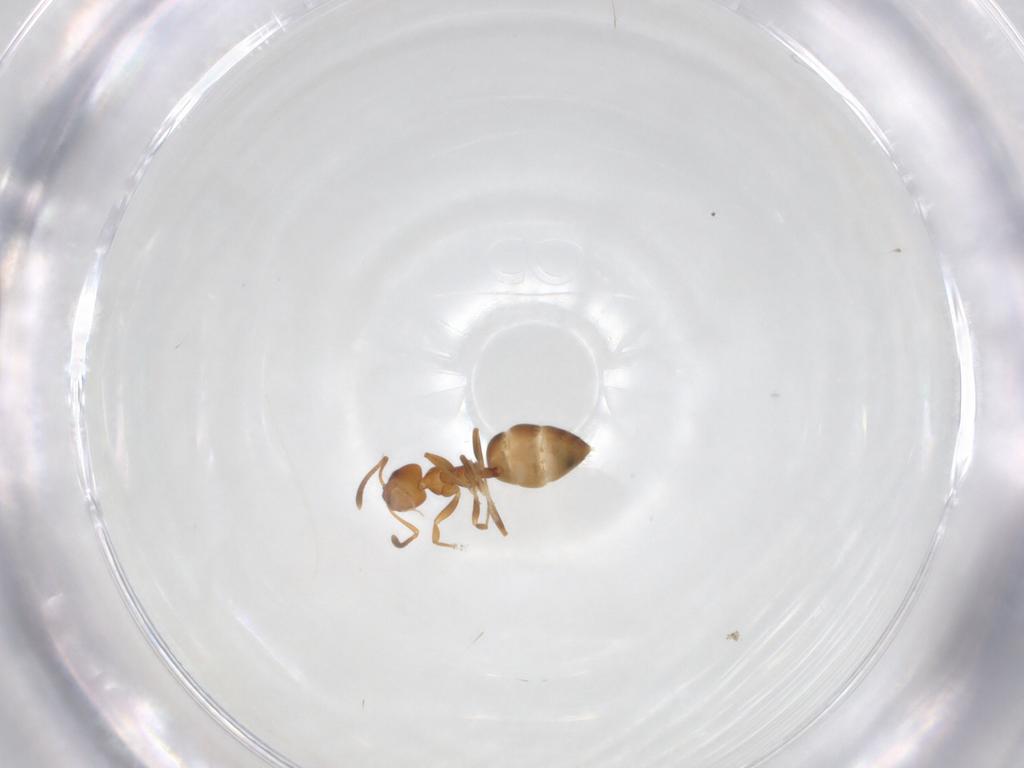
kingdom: Animalia
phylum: Arthropoda
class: Insecta
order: Hymenoptera
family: Formicidae
